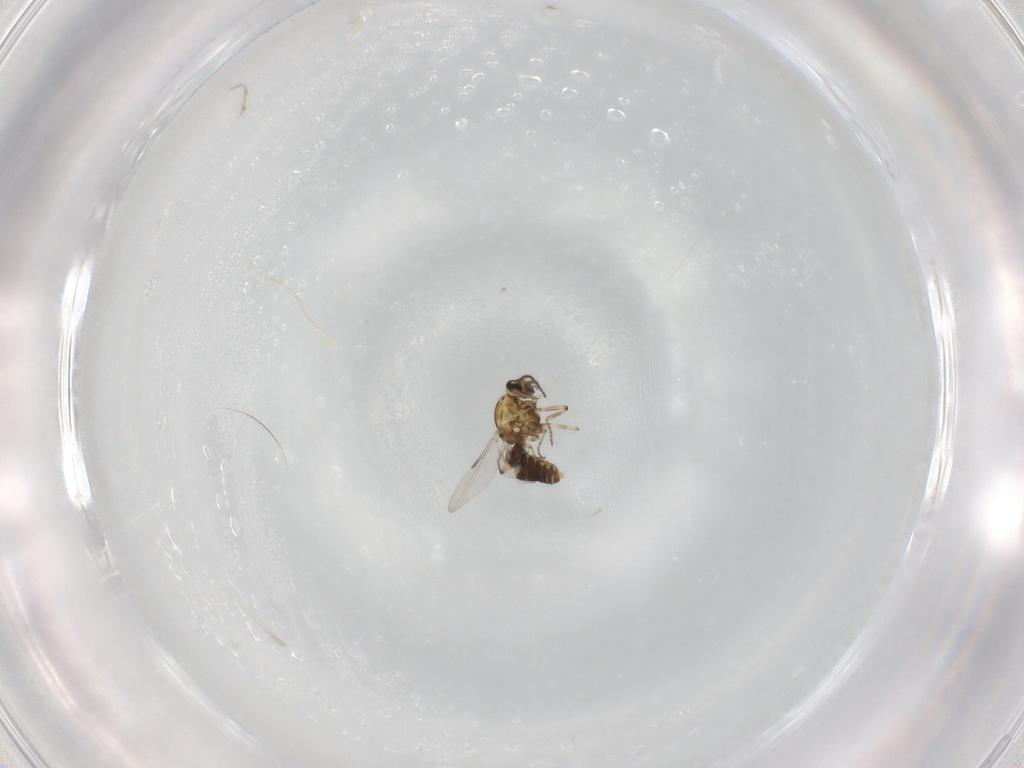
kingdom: Animalia
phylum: Arthropoda
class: Insecta
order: Diptera
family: Ceratopogonidae
